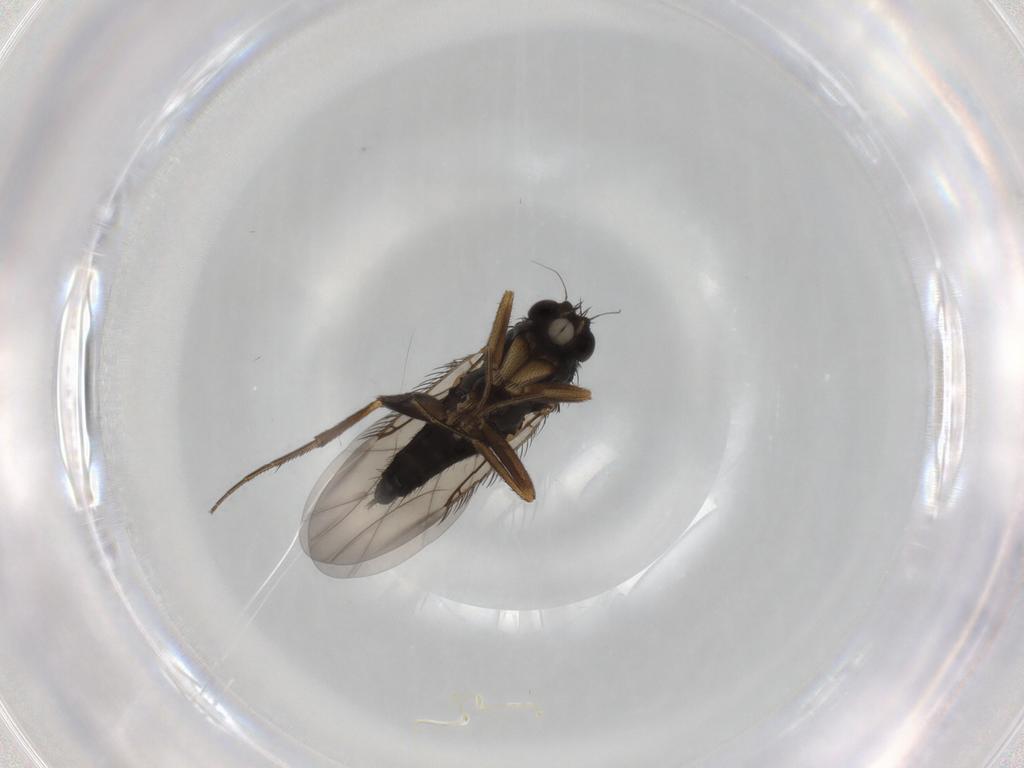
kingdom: Animalia
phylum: Arthropoda
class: Insecta
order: Diptera
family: Phoridae
